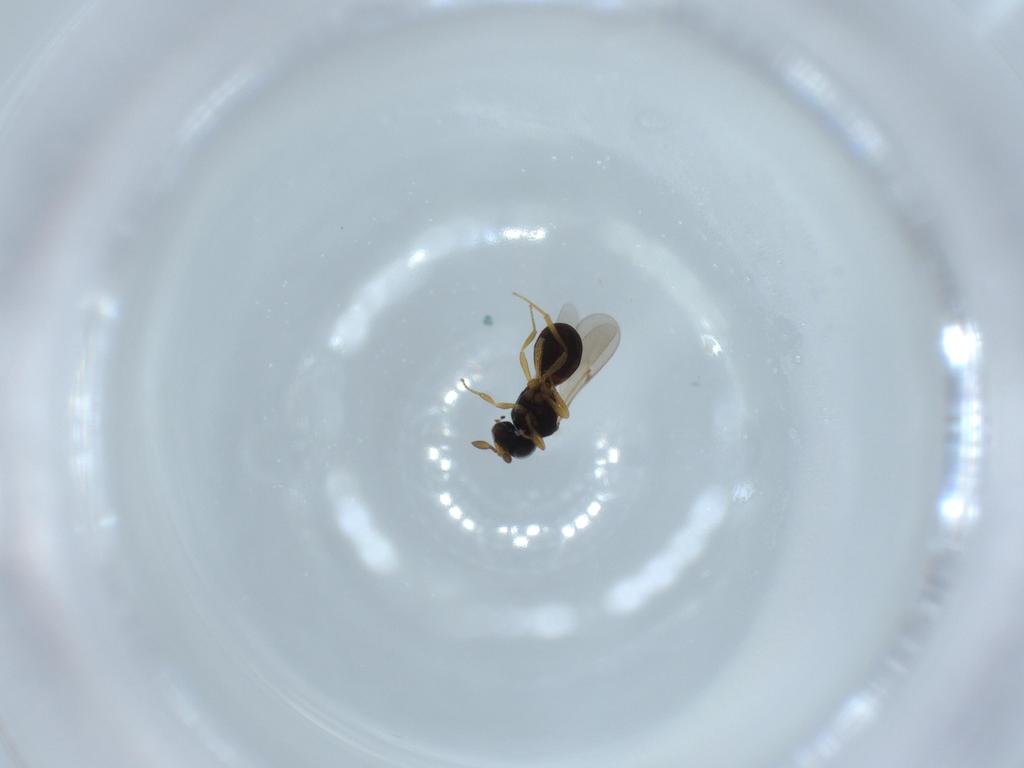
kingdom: Animalia
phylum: Arthropoda
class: Insecta
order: Hymenoptera
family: Scelionidae
